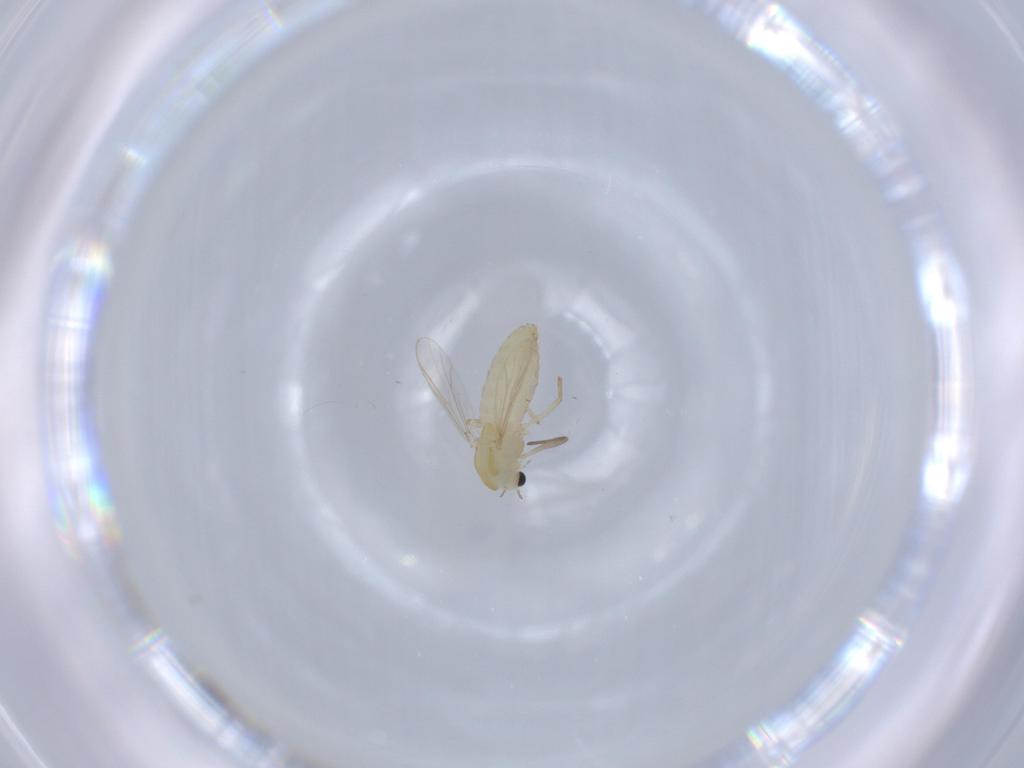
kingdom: Animalia
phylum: Arthropoda
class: Insecta
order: Diptera
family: Chironomidae
